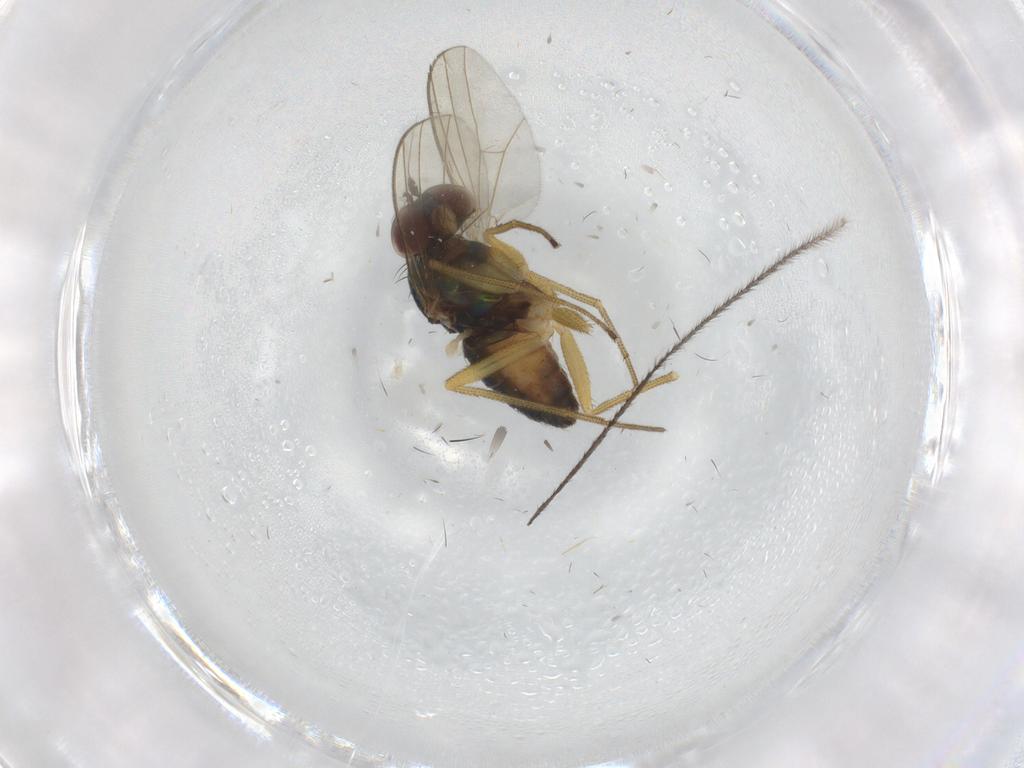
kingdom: Animalia
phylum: Arthropoda
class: Insecta
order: Diptera
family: Dolichopodidae
